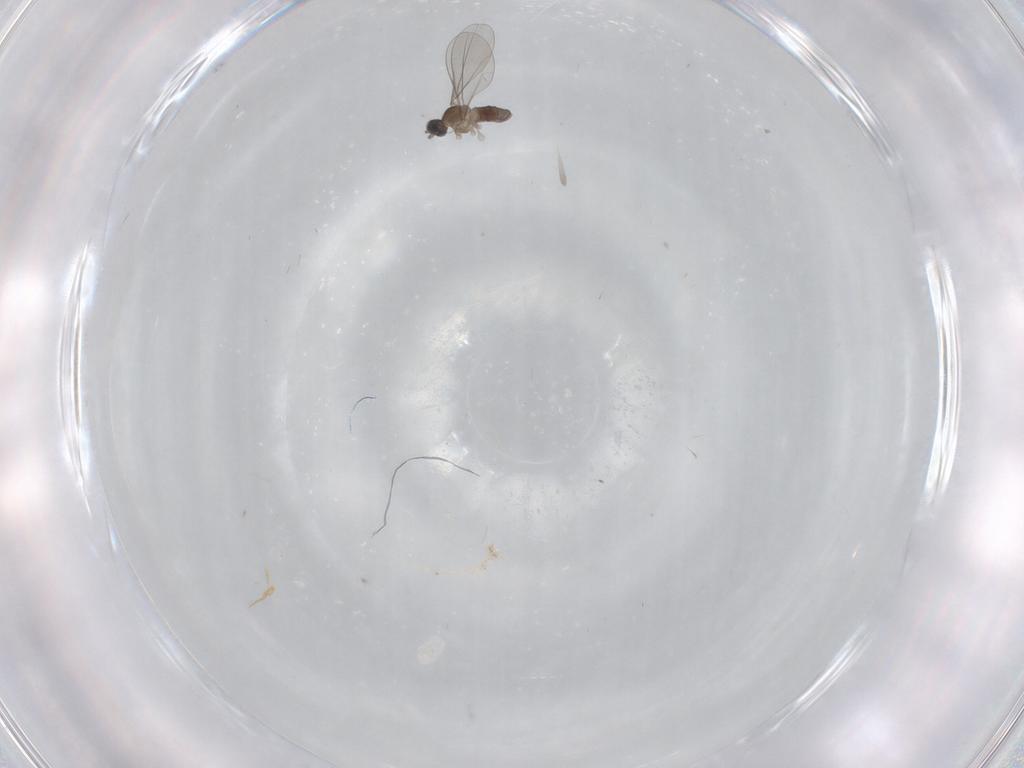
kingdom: Animalia
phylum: Arthropoda
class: Insecta
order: Diptera
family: Cecidomyiidae
